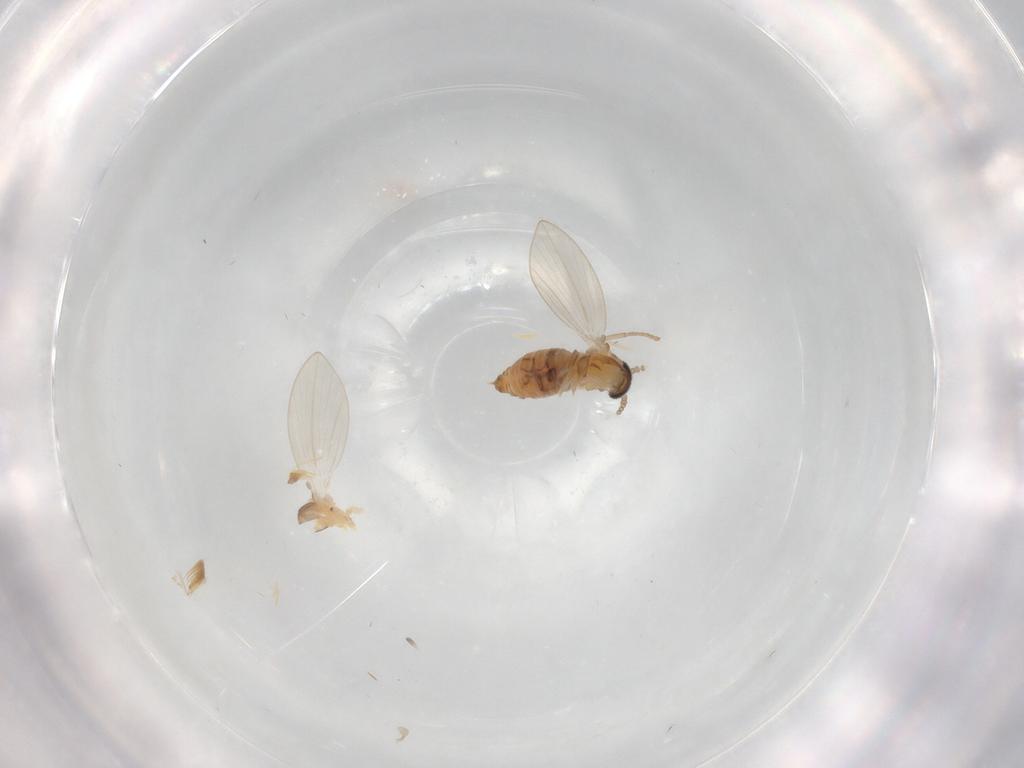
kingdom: Animalia
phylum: Arthropoda
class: Insecta
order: Diptera
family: Psychodidae
